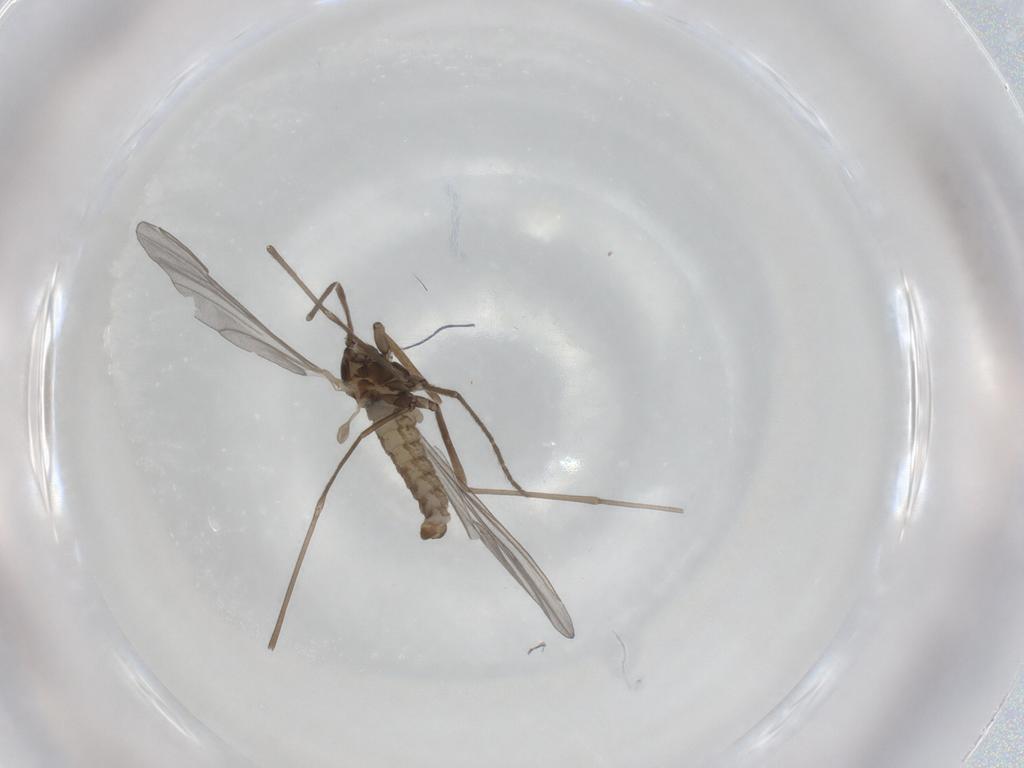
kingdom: Animalia
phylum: Arthropoda
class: Insecta
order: Diptera
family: Cecidomyiidae
